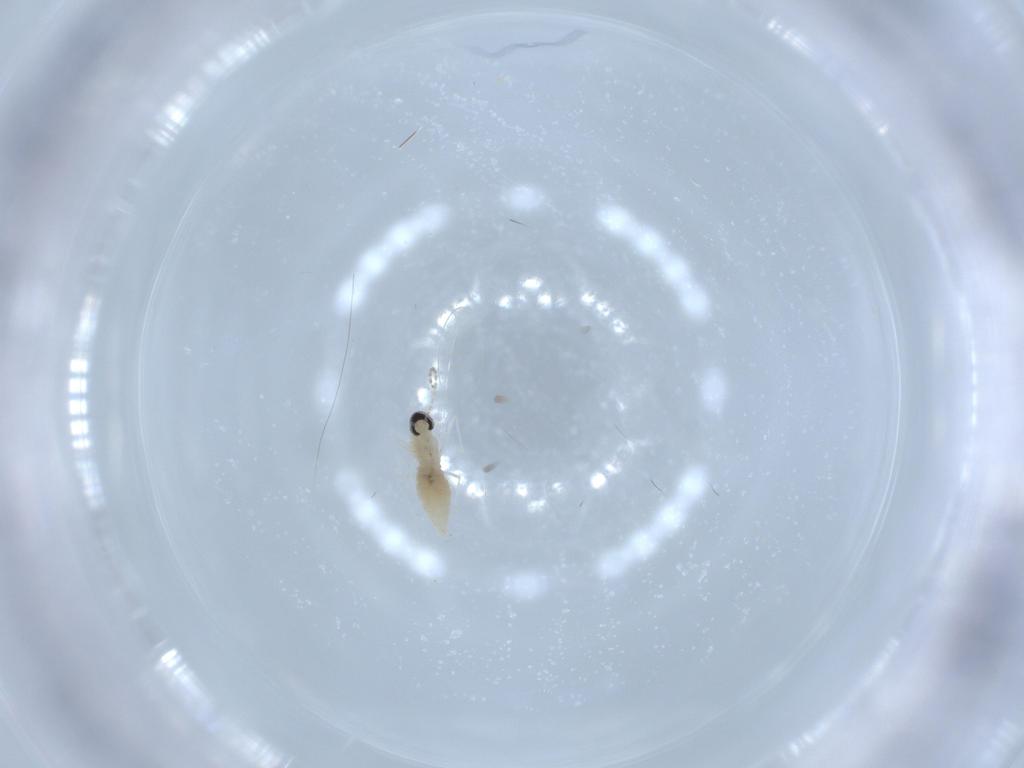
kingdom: Animalia
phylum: Arthropoda
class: Insecta
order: Diptera
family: Cecidomyiidae
